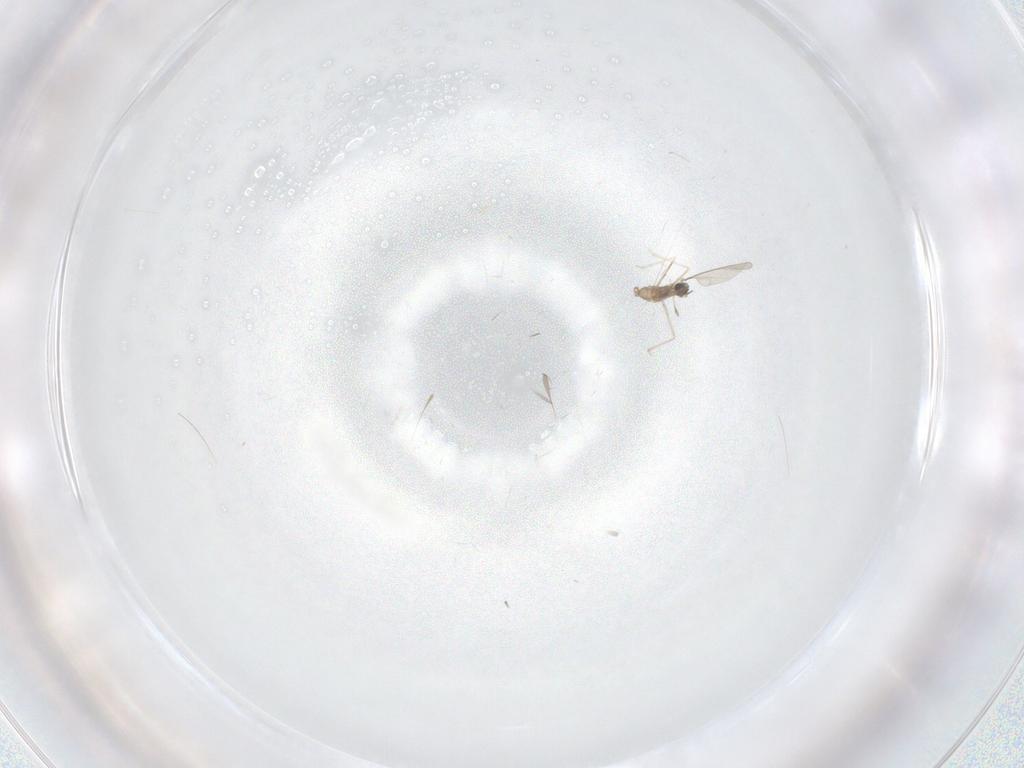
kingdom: Animalia
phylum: Arthropoda
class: Insecta
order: Diptera
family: Cecidomyiidae
